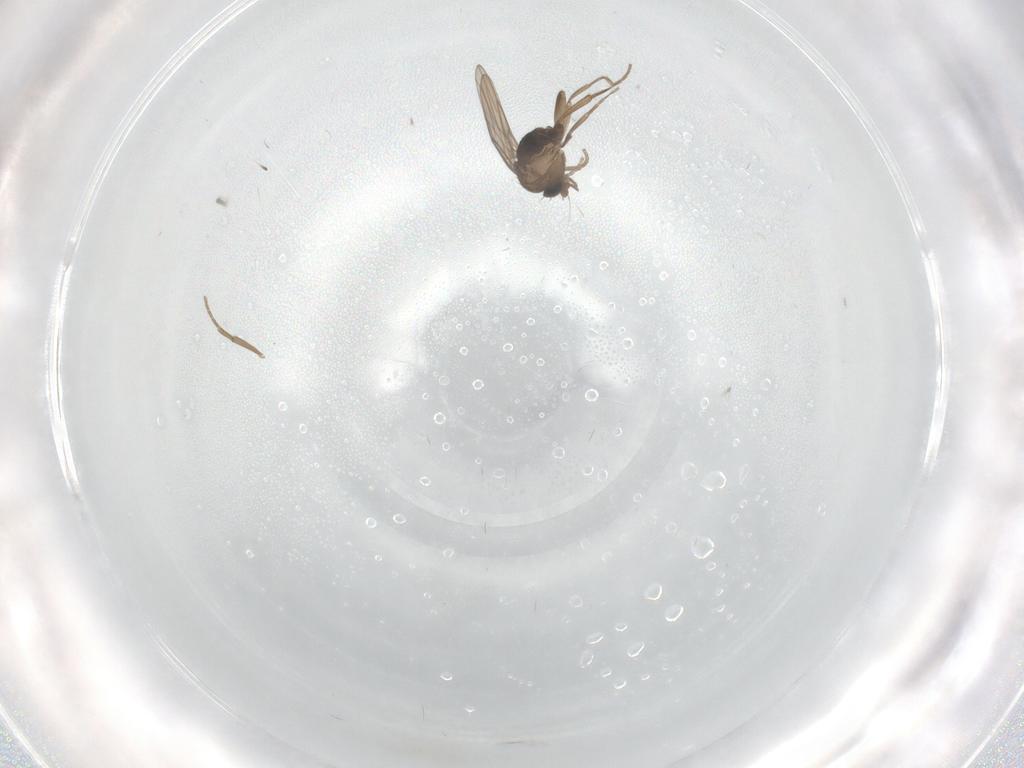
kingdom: Animalia
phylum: Arthropoda
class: Insecta
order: Diptera
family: Sciaridae
